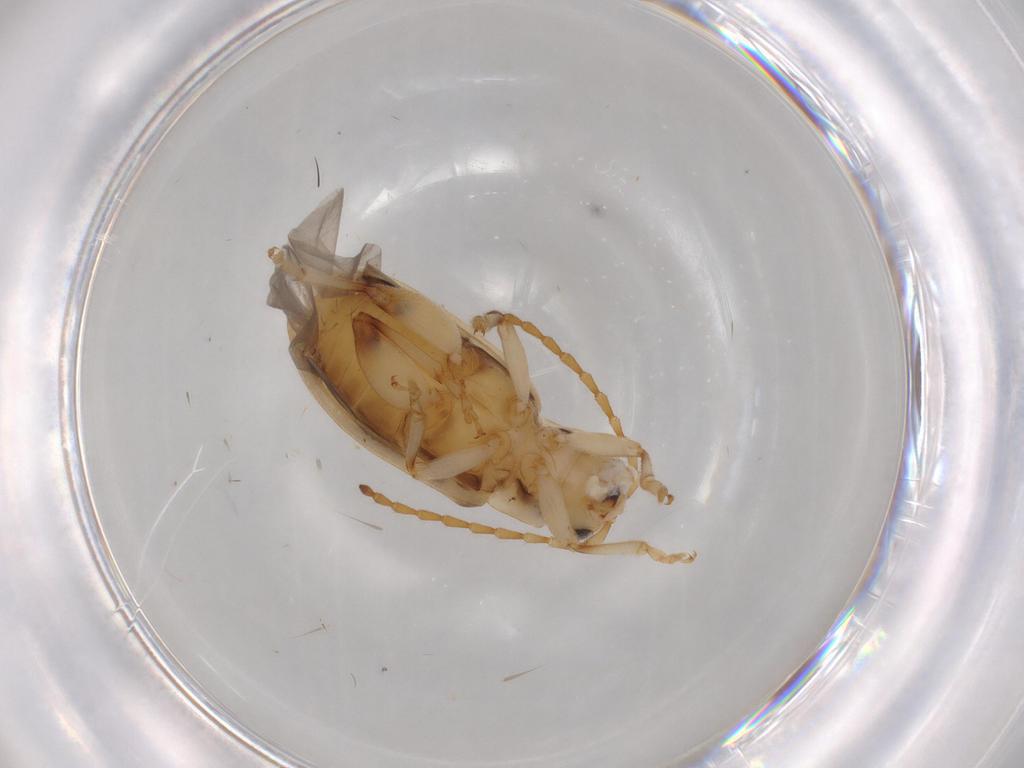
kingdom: Animalia
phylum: Arthropoda
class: Insecta
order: Coleoptera
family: Chrysomelidae
